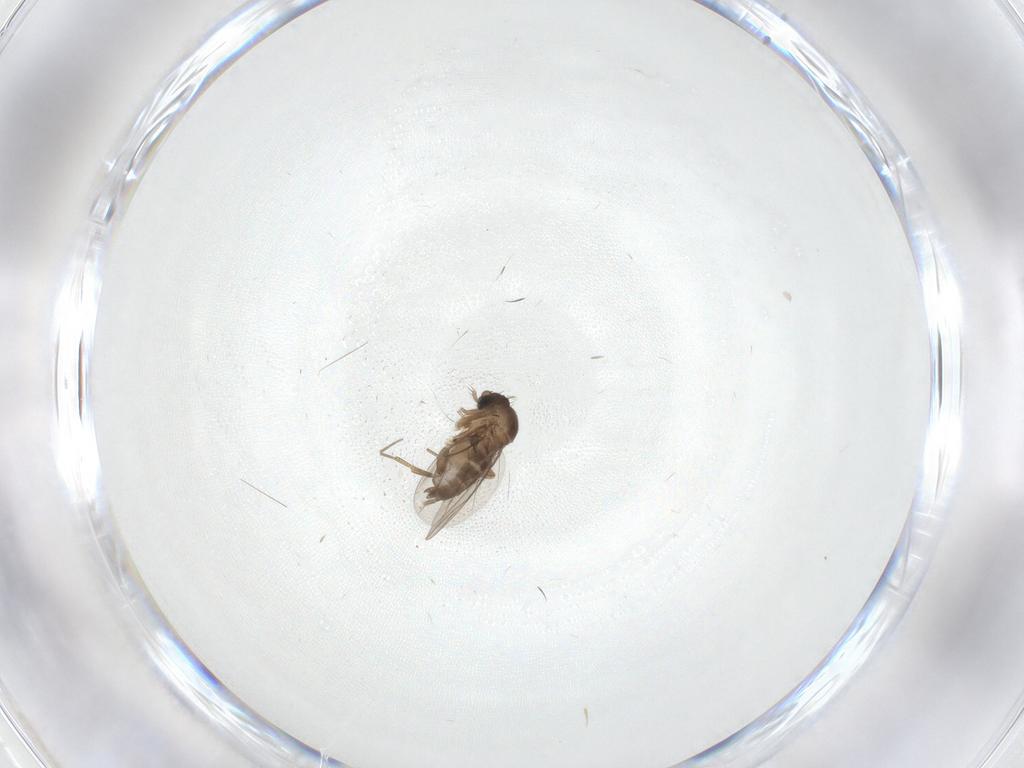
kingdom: Animalia
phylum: Arthropoda
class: Insecta
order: Diptera
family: Phoridae
